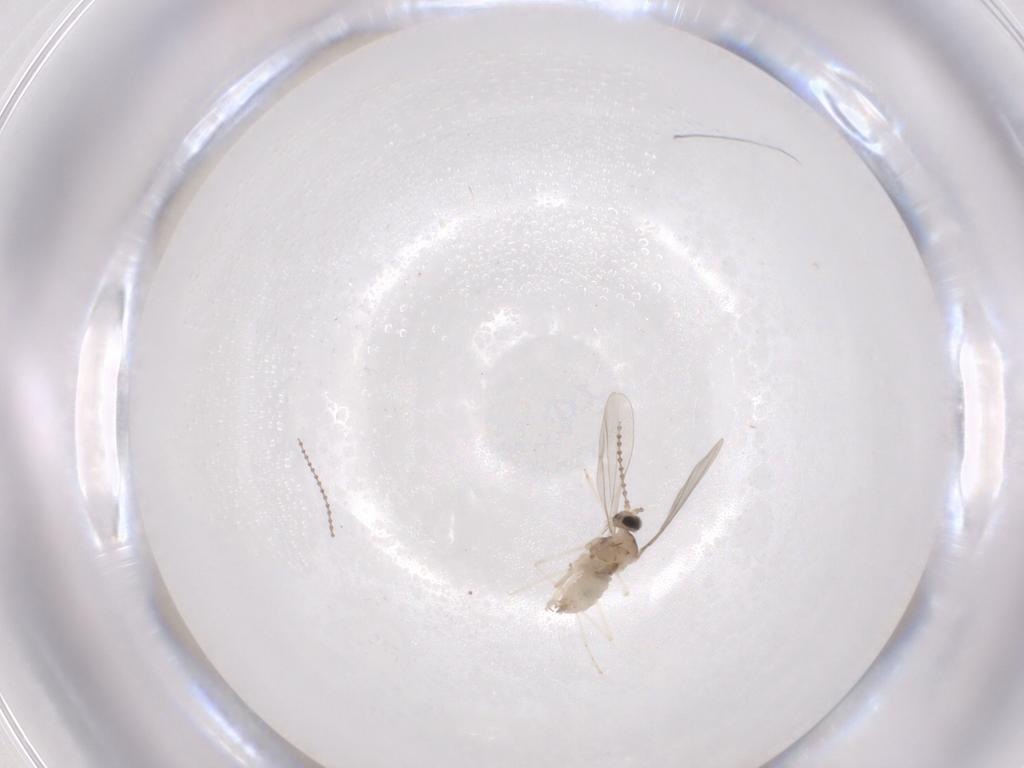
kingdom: Animalia
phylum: Arthropoda
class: Insecta
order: Diptera
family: Cecidomyiidae
